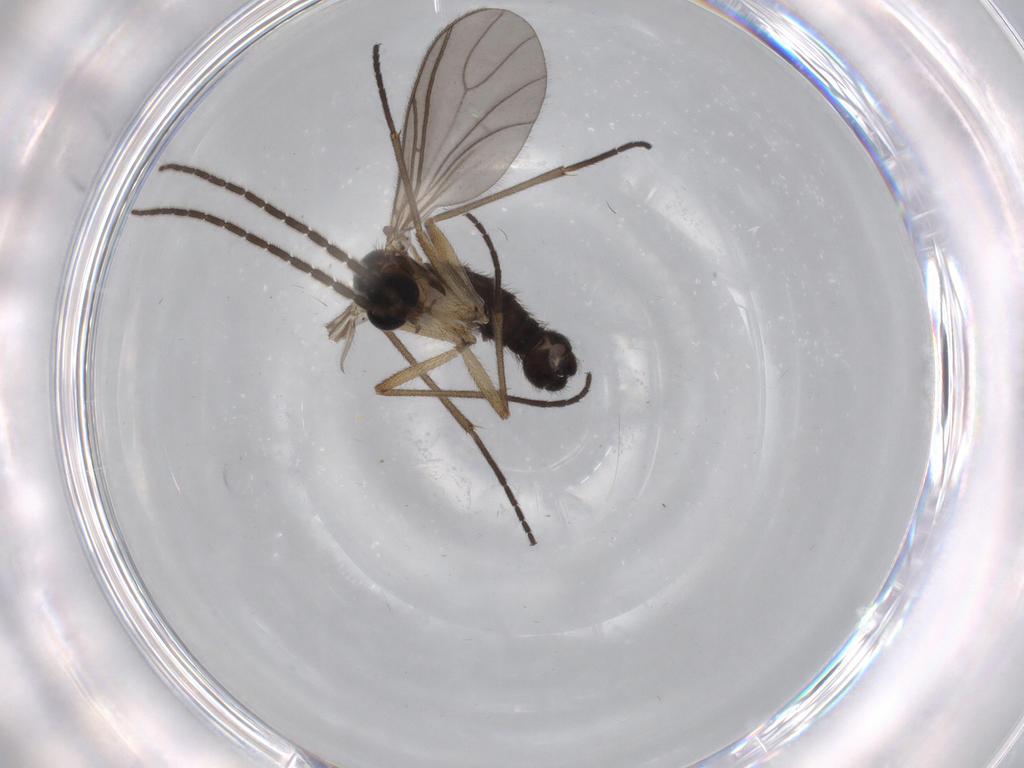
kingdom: Animalia
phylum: Arthropoda
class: Insecta
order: Diptera
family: Sciaridae
